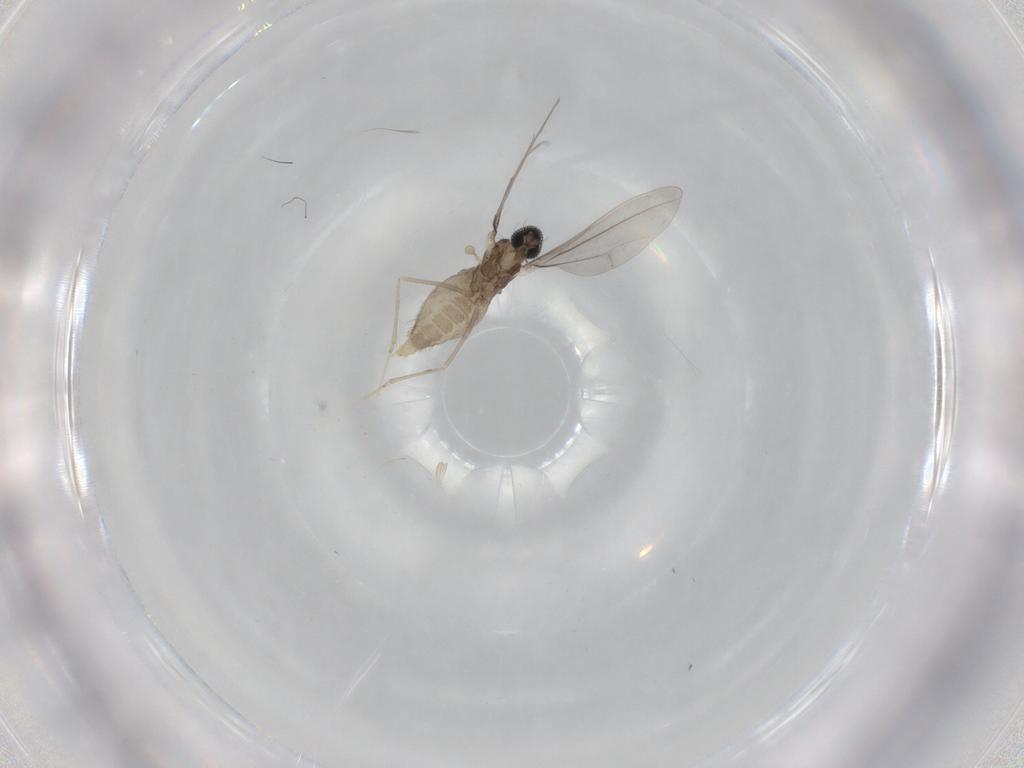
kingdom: Animalia
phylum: Arthropoda
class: Insecta
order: Diptera
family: Cecidomyiidae
